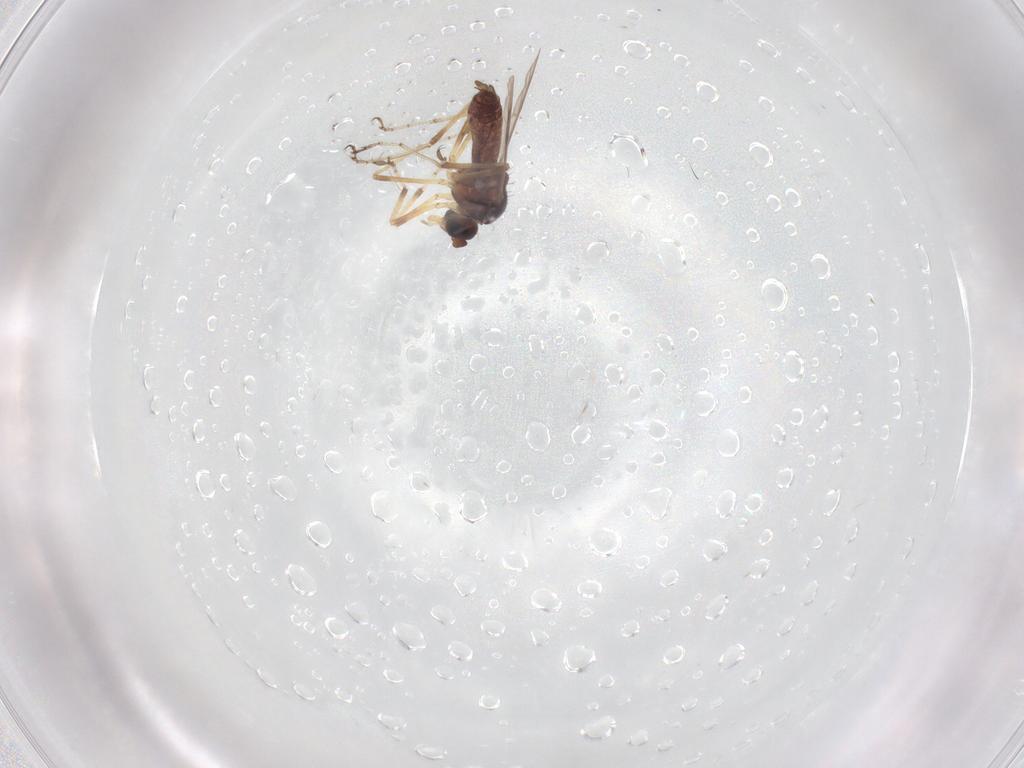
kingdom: Animalia
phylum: Arthropoda
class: Insecta
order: Diptera
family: Ceratopogonidae
